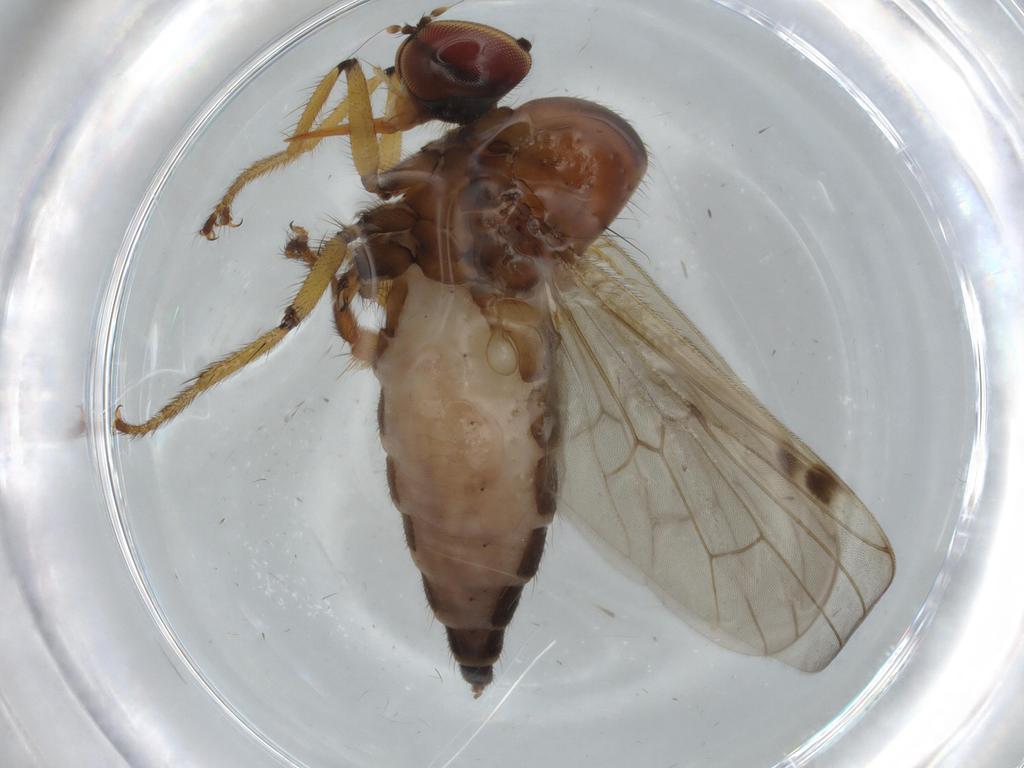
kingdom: Animalia
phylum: Arthropoda
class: Insecta
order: Diptera
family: Hybotidae
